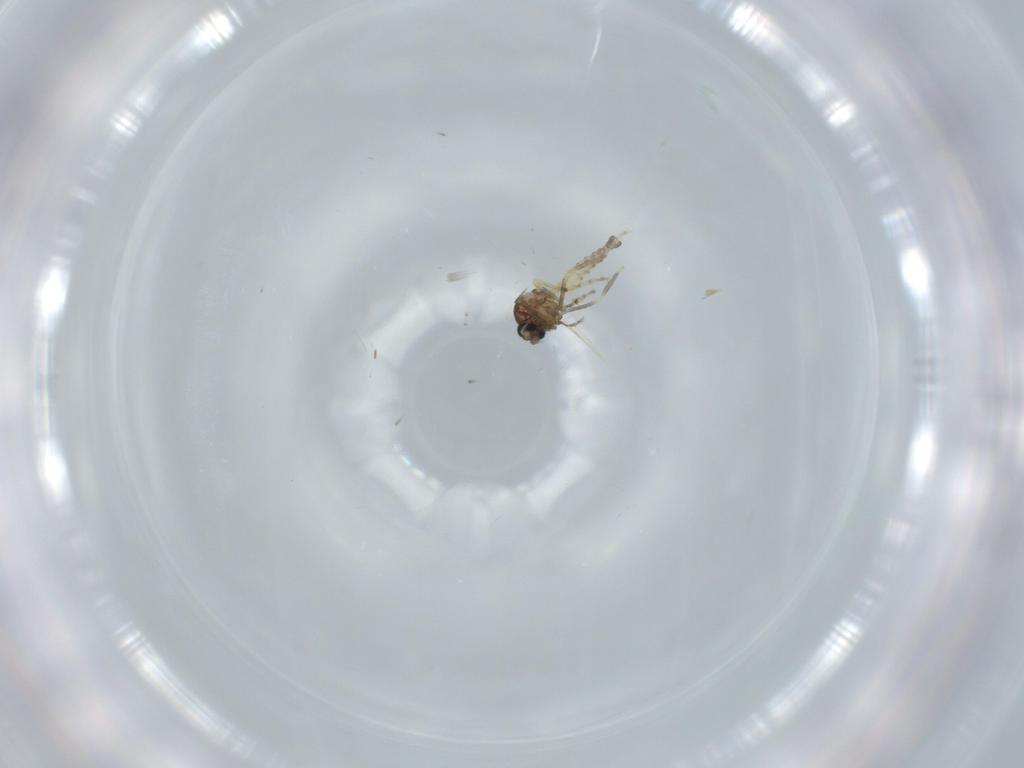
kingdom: Animalia
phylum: Arthropoda
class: Insecta
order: Diptera
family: Ceratopogonidae
